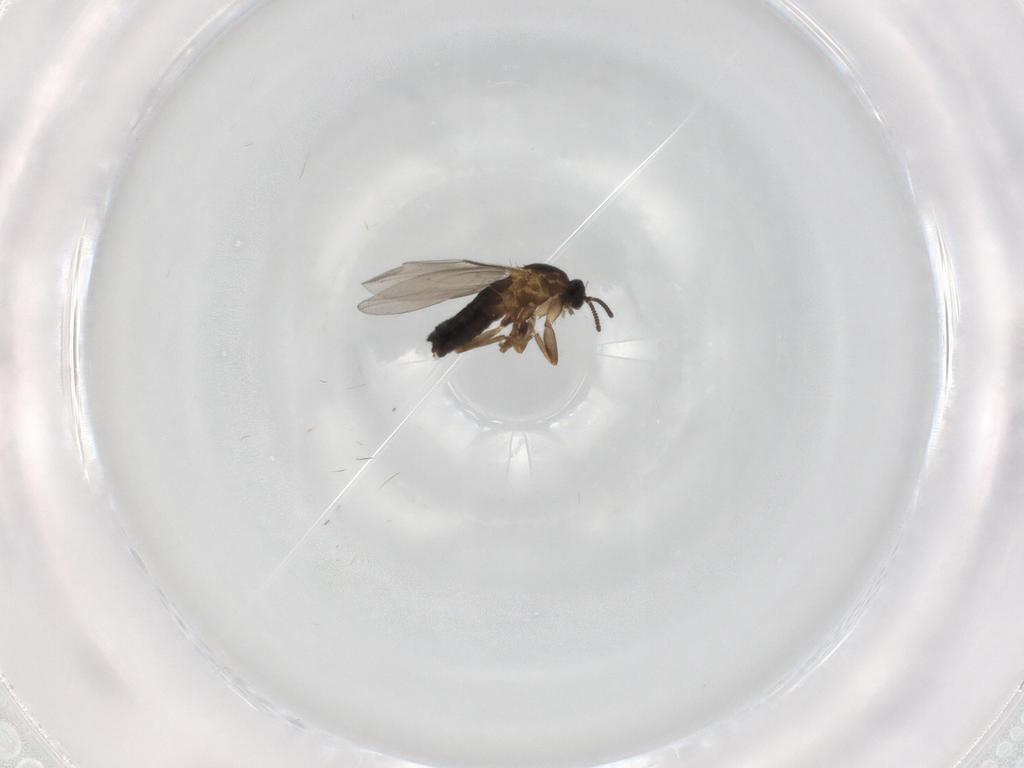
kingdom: Animalia
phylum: Arthropoda
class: Insecta
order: Diptera
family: Scatopsidae
